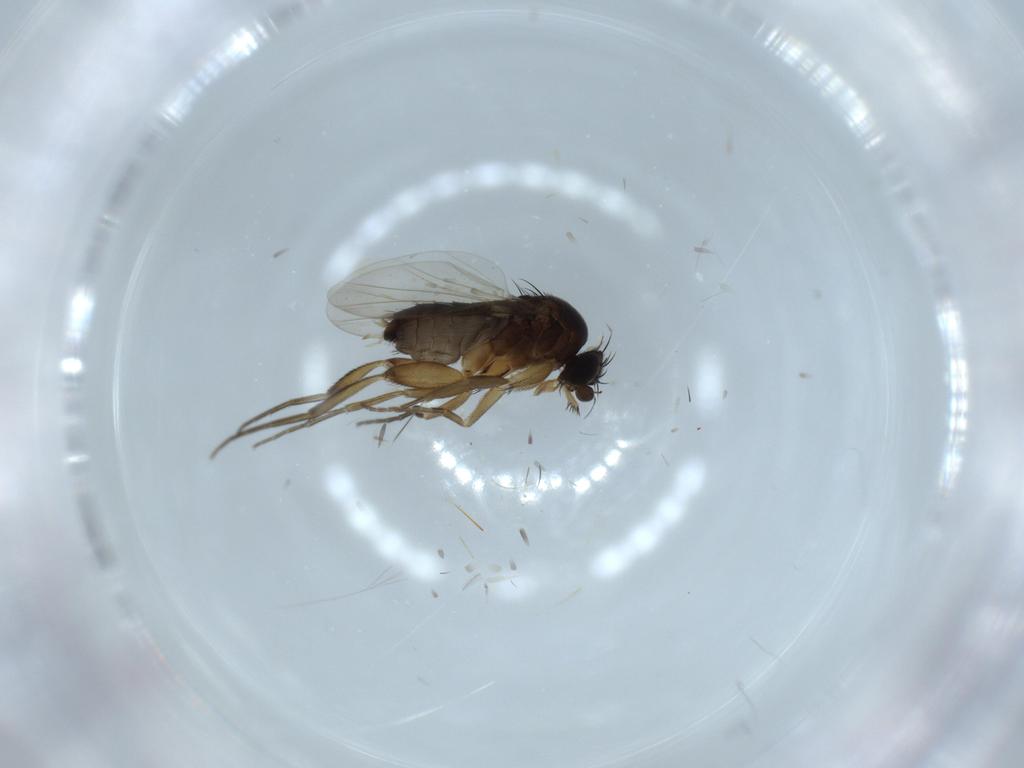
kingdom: Animalia
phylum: Arthropoda
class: Insecta
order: Diptera
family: Phoridae
